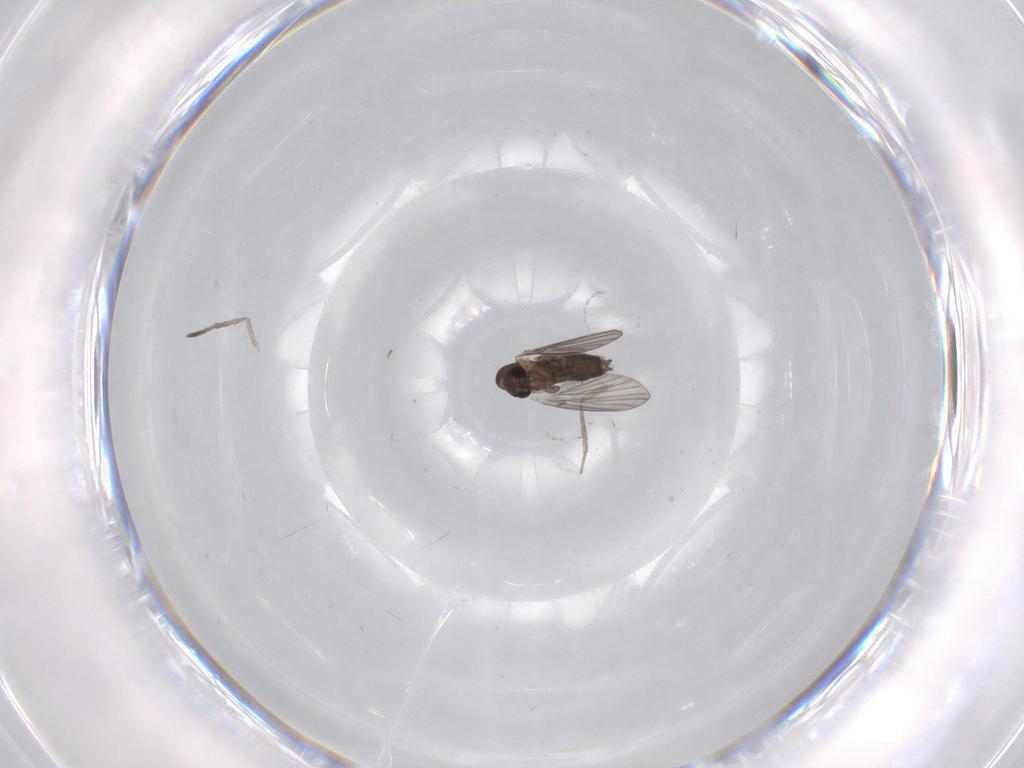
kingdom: Animalia
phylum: Arthropoda
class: Insecta
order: Diptera
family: Cecidomyiidae
